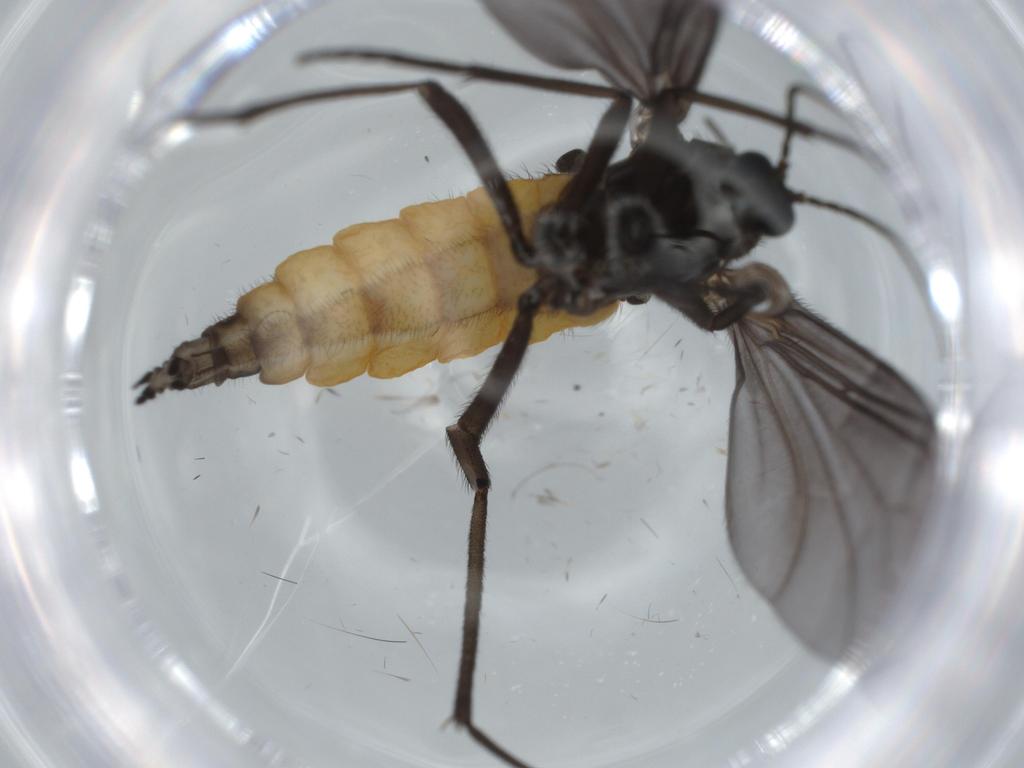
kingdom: Animalia
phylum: Arthropoda
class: Insecta
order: Diptera
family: Cecidomyiidae
